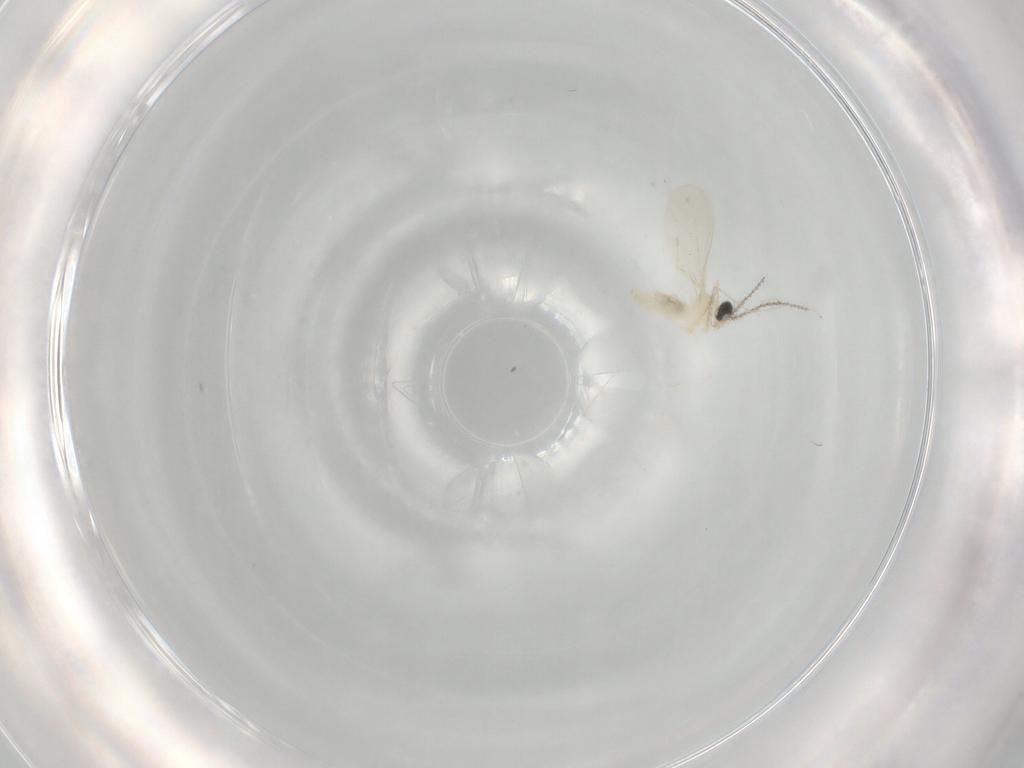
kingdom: Animalia
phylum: Arthropoda
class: Insecta
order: Diptera
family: Cecidomyiidae
